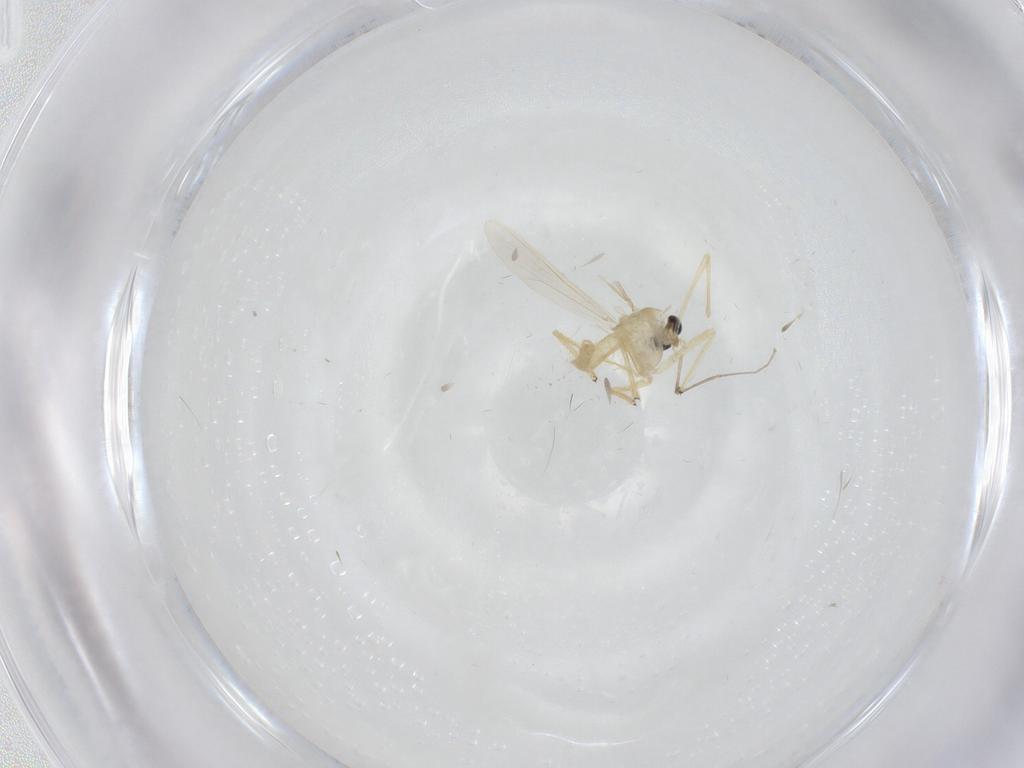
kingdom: Animalia
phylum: Arthropoda
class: Insecta
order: Diptera
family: Chironomidae
